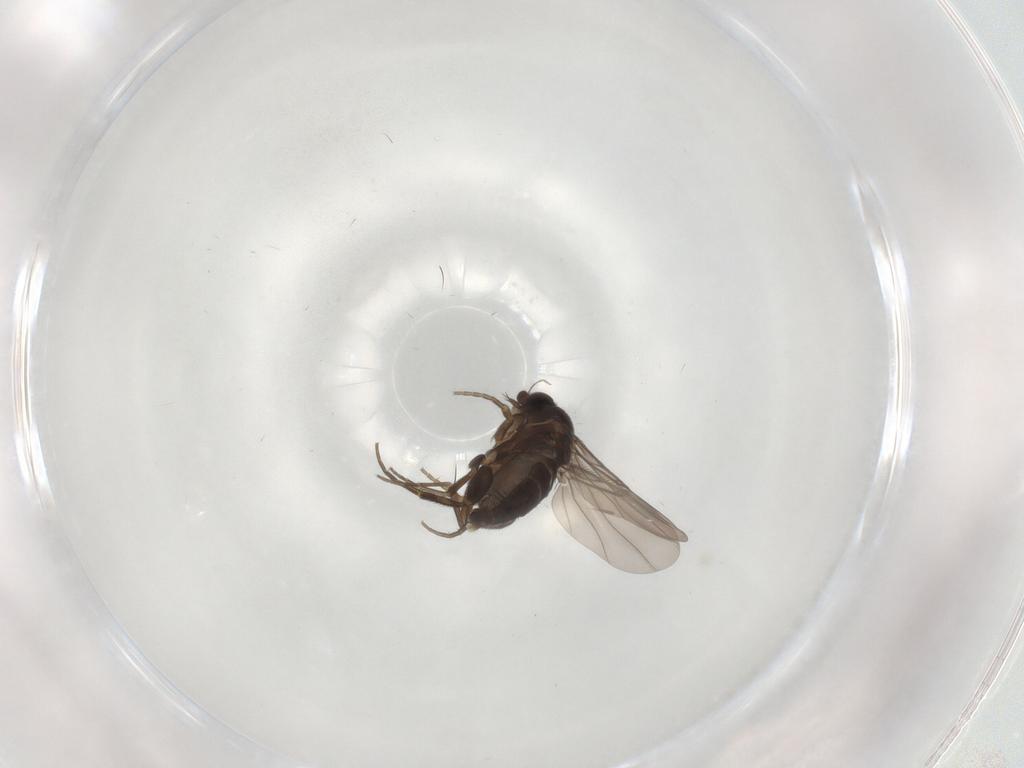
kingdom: Animalia
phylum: Arthropoda
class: Insecta
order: Diptera
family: Phoridae
